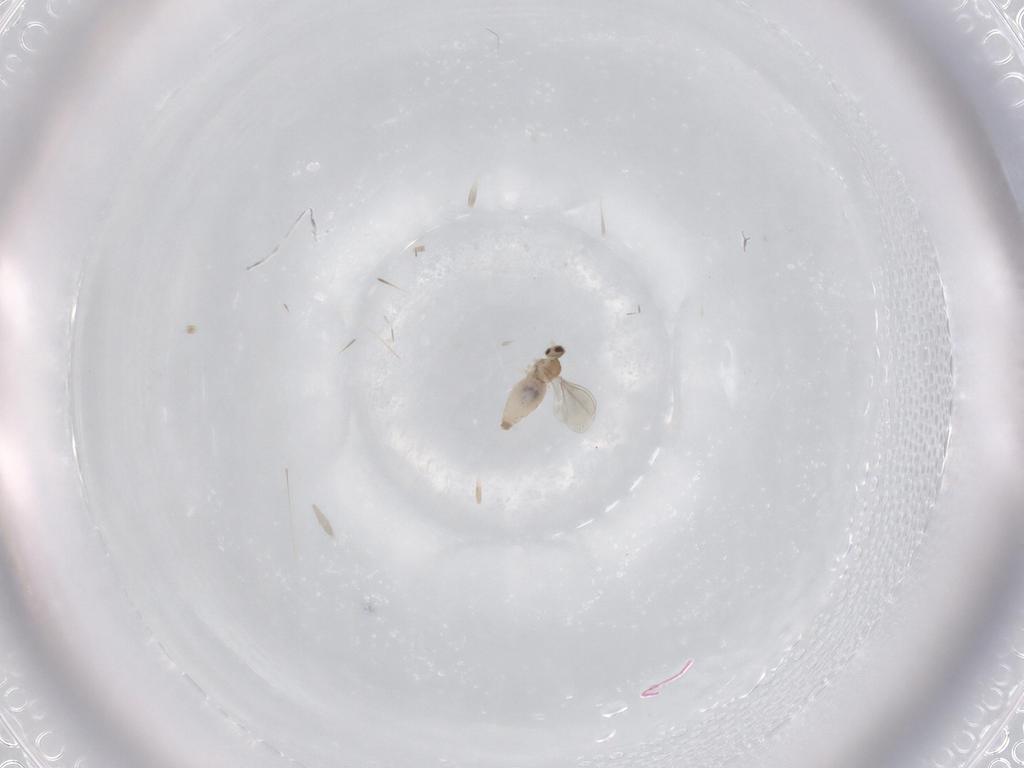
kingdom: Animalia
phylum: Arthropoda
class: Insecta
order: Diptera
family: Cecidomyiidae
